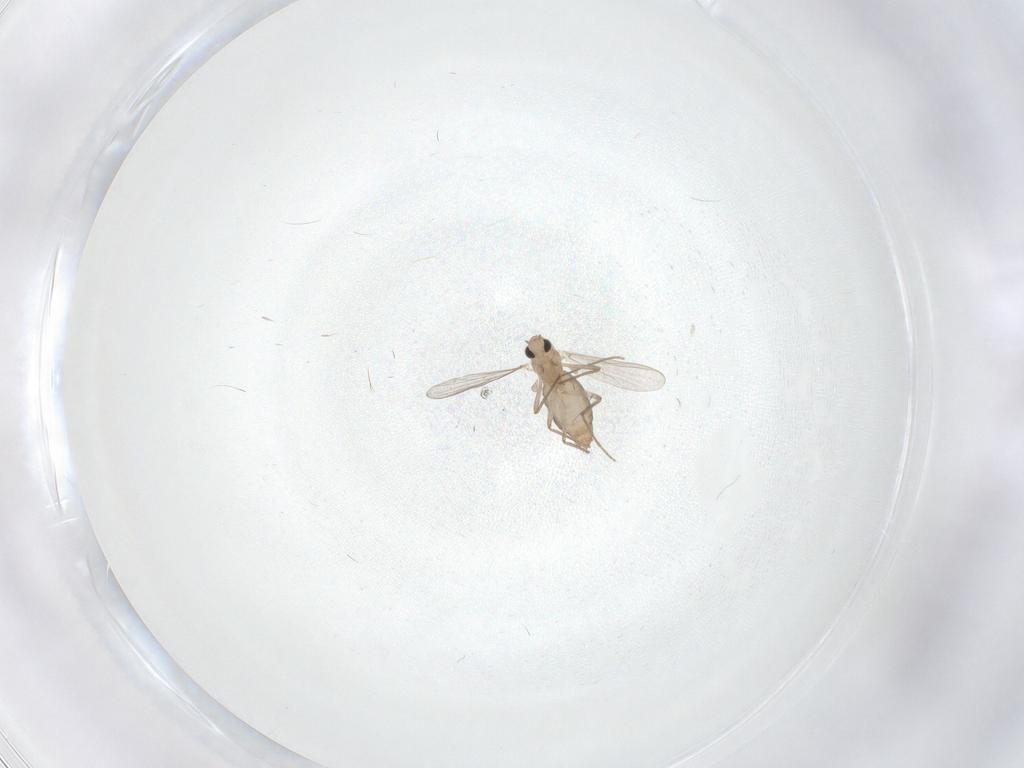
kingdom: Animalia
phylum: Arthropoda
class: Insecta
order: Diptera
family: Chironomidae
